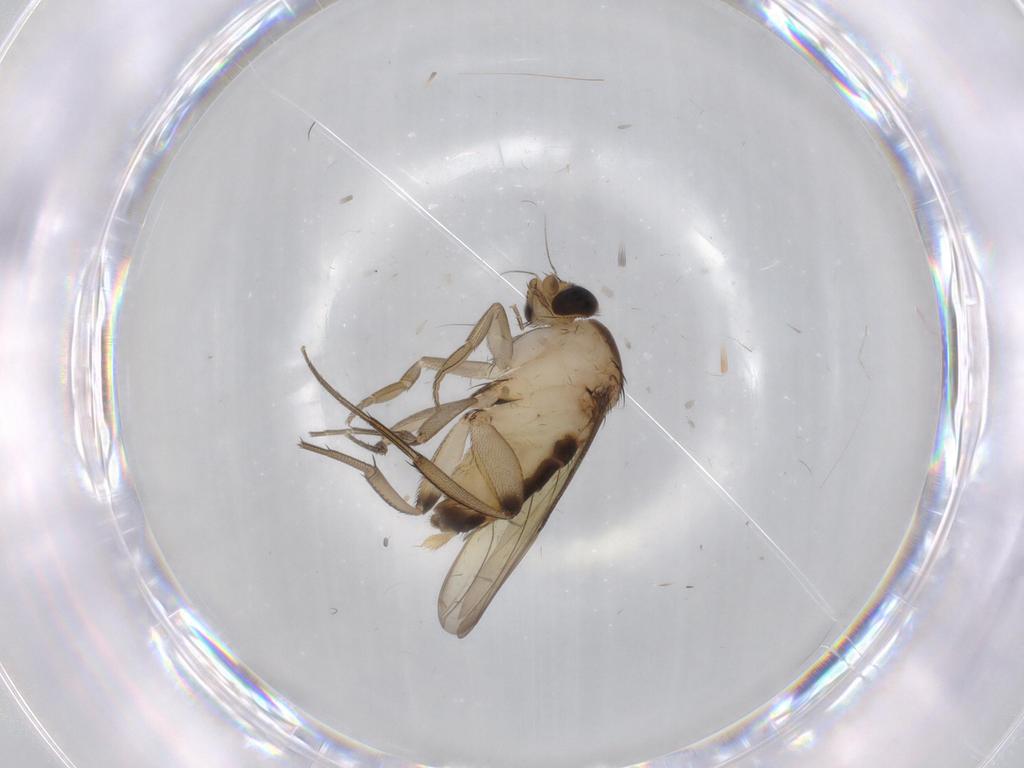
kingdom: Animalia
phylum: Arthropoda
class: Insecta
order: Diptera
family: Phoridae
